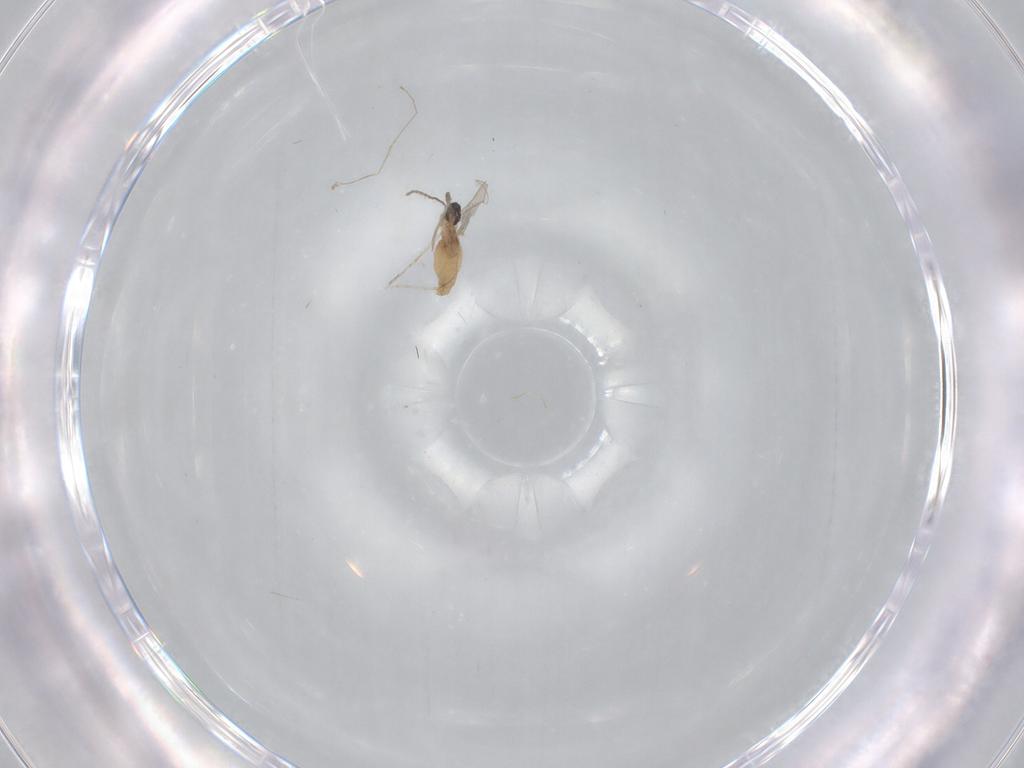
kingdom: Animalia
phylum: Arthropoda
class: Insecta
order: Diptera
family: Cecidomyiidae
